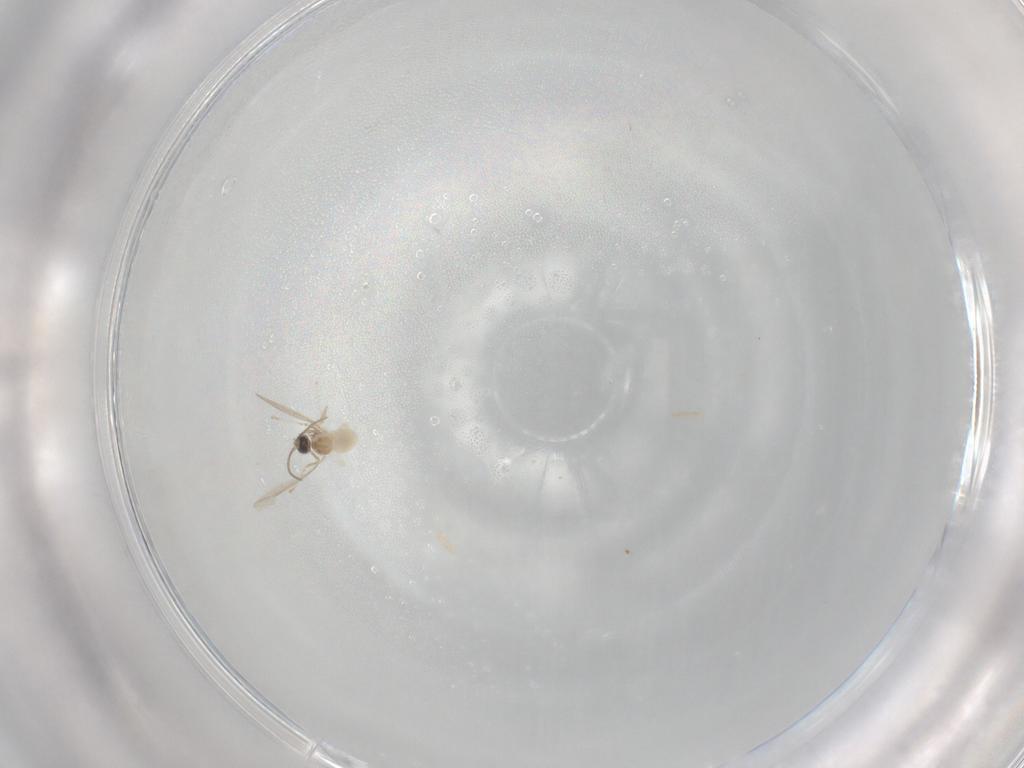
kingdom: Animalia
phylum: Arthropoda
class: Insecta
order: Diptera
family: Cecidomyiidae
